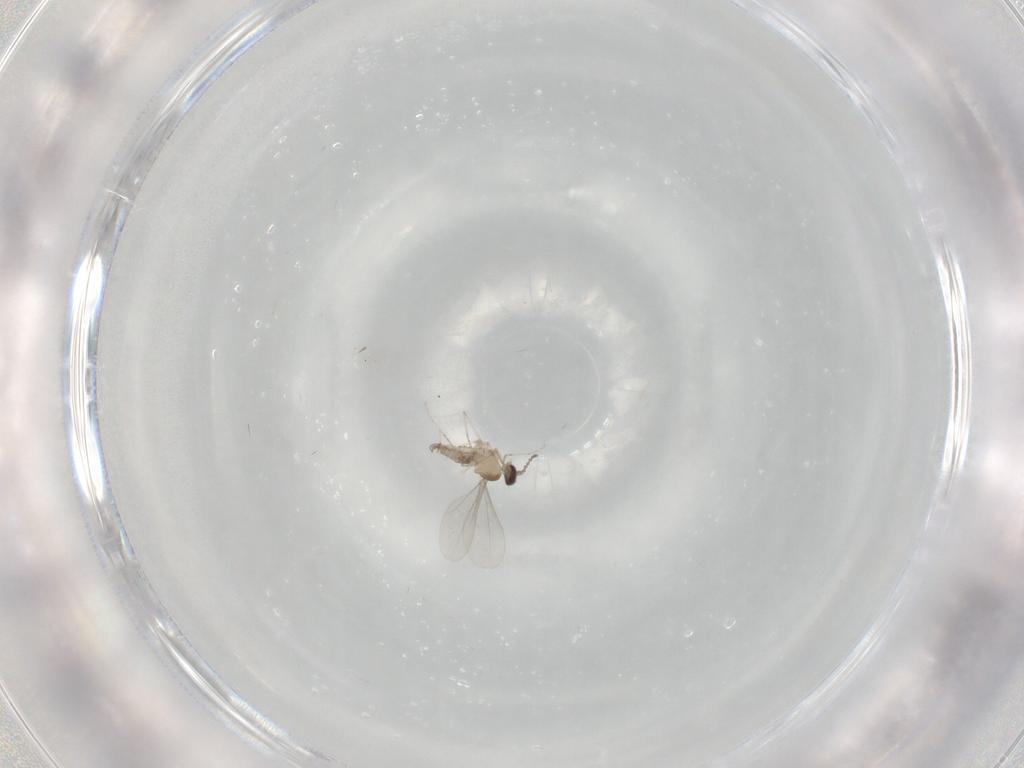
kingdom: Animalia
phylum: Arthropoda
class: Insecta
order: Diptera
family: Cecidomyiidae
